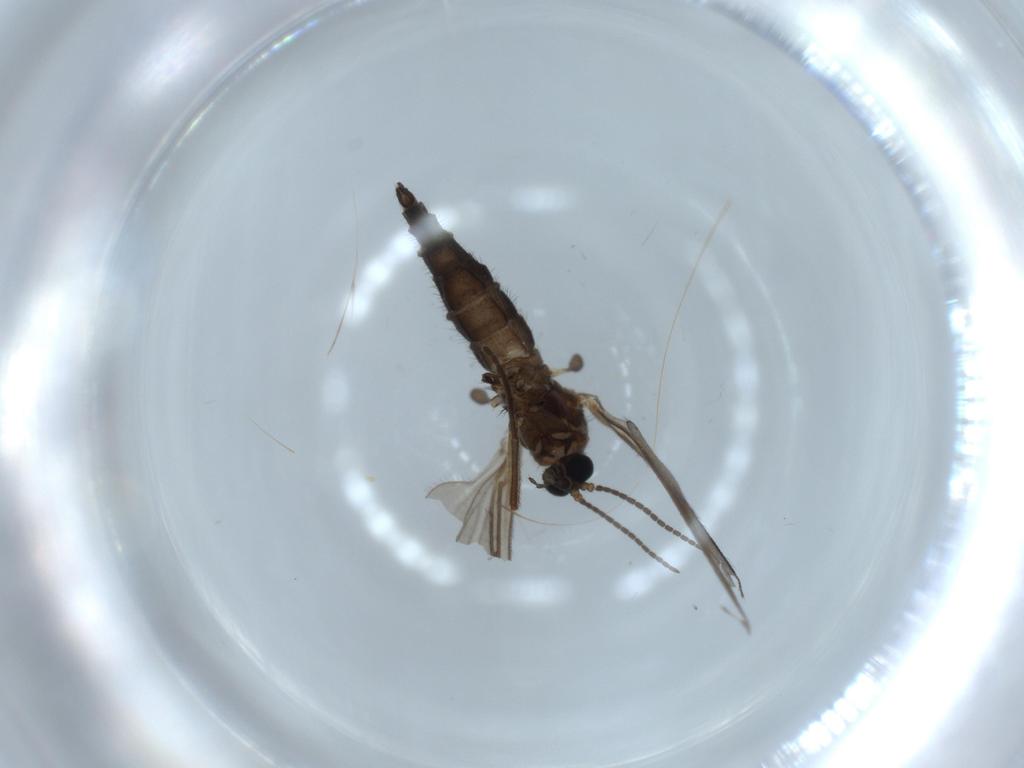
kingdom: Animalia
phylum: Arthropoda
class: Insecta
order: Diptera
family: Sciaridae
